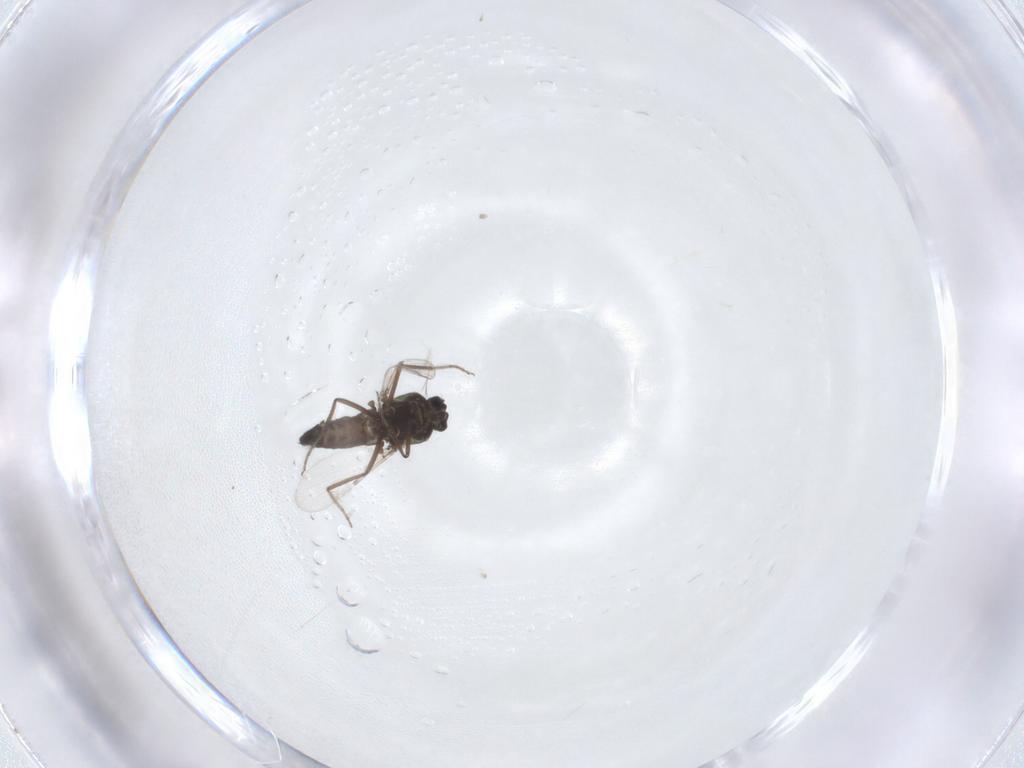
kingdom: Animalia
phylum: Arthropoda
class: Insecta
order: Diptera
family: Ceratopogonidae
